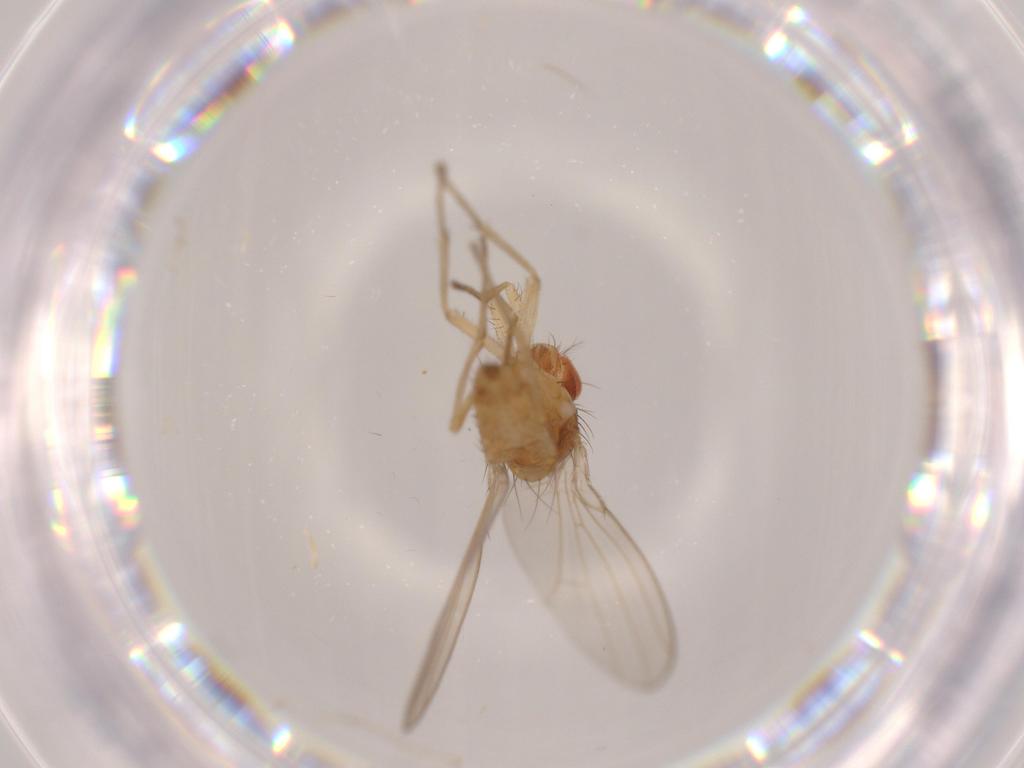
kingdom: Animalia
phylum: Arthropoda
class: Insecta
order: Diptera
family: Drosophilidae
